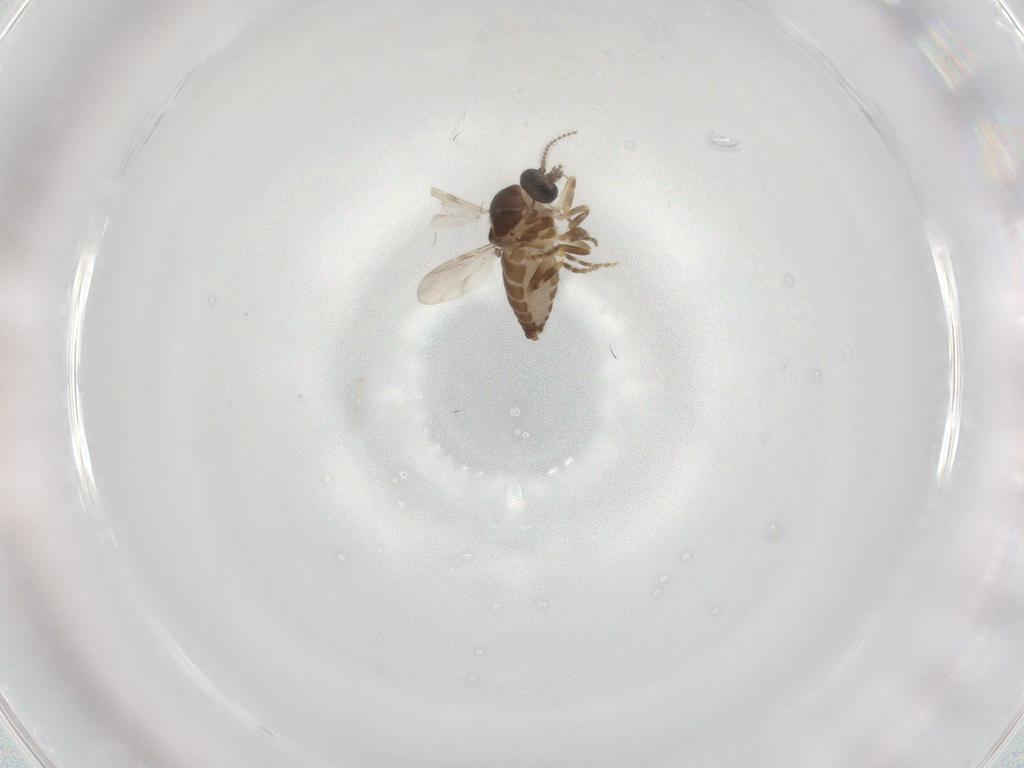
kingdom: Animalia
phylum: Arthropoda
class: Insecta
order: Diptera
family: Ceratopogonidae
